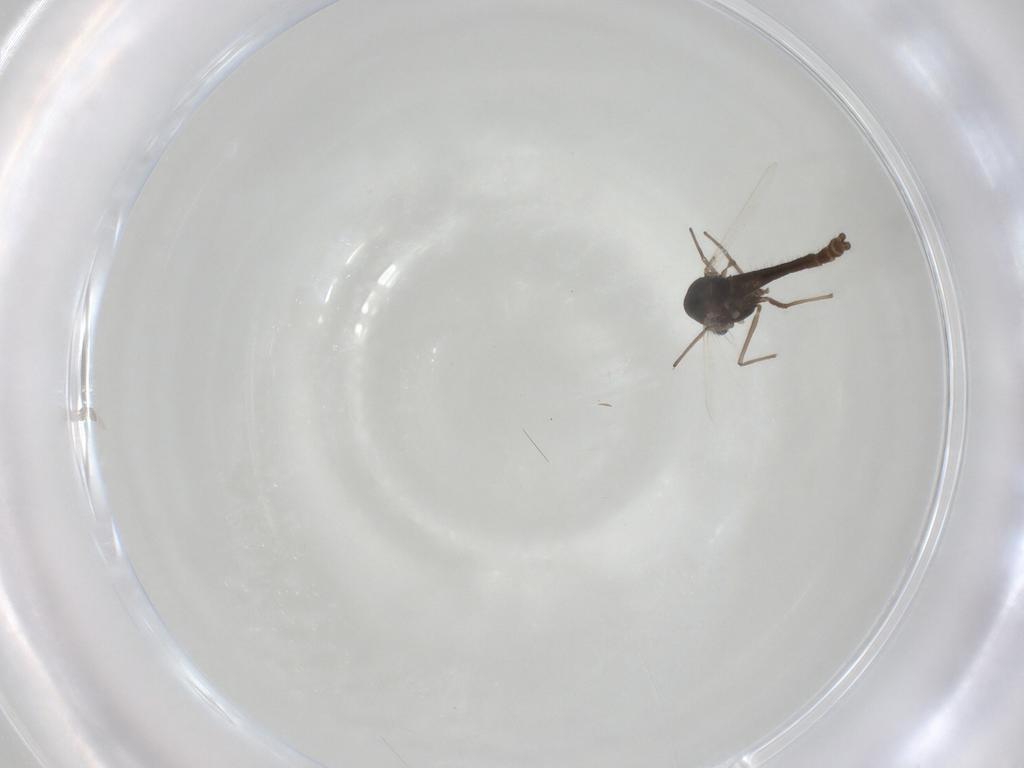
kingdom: Animalia
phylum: Arthropoda
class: Insecta
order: Diptera
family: Chironomidae
